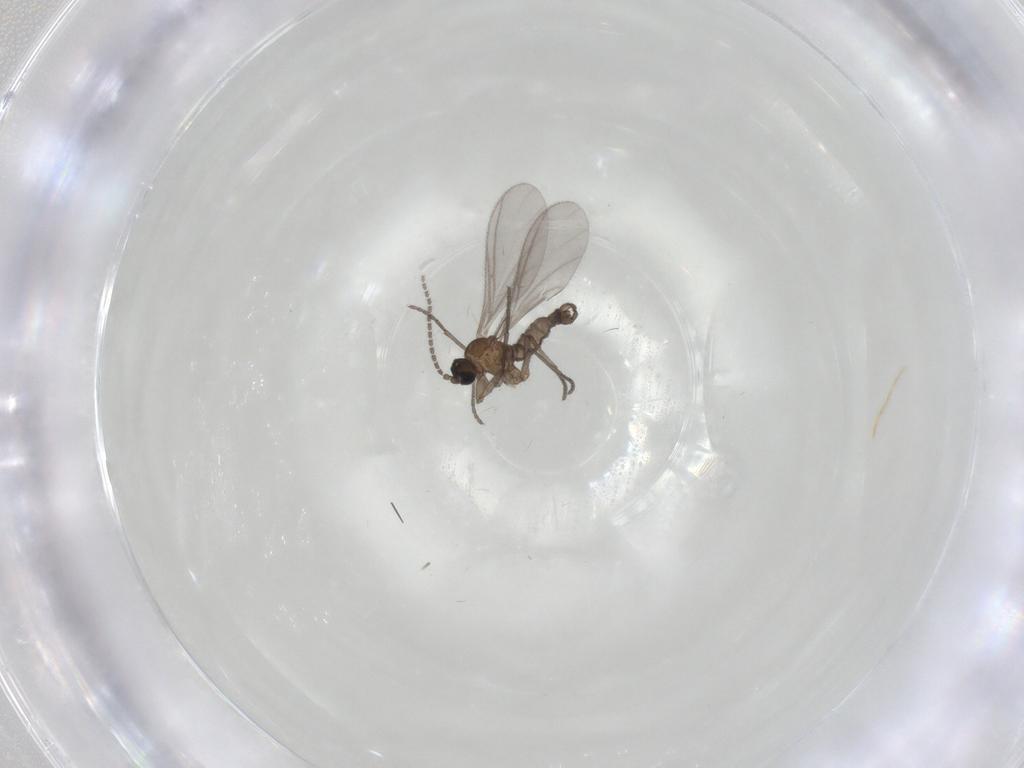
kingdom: Animalia
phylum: Arthropoda
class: Insecta
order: Diptera
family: Sciaridae
